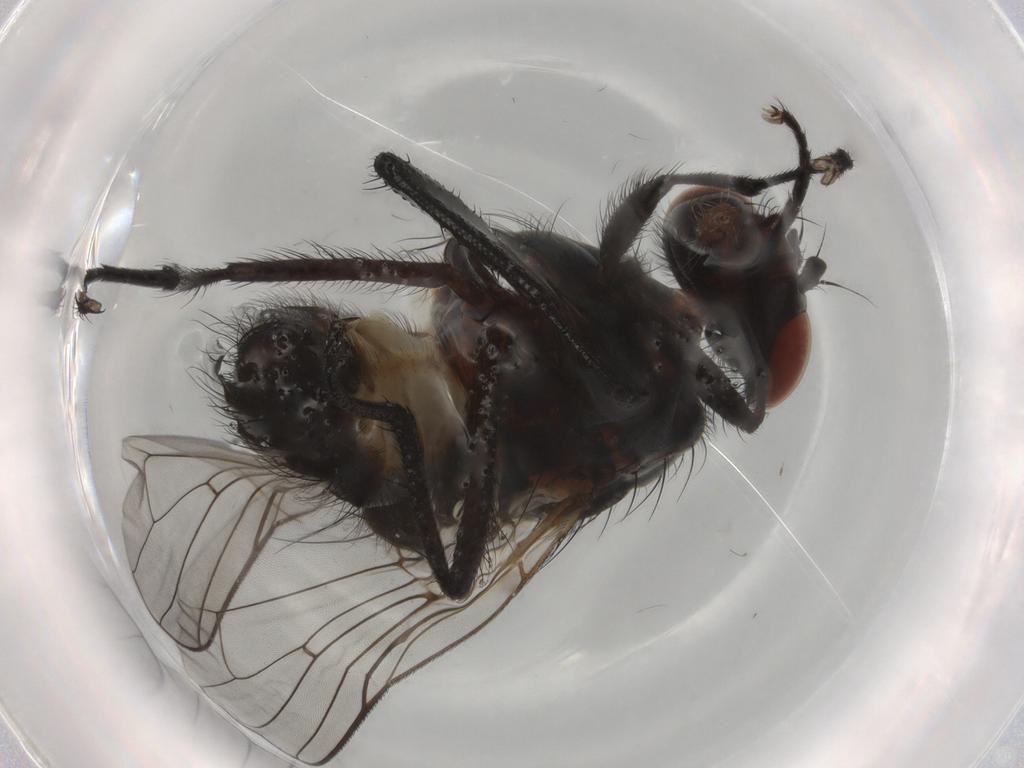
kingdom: Animalia
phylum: Arthropoda
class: Insecta
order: Diptera
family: Anthomyiidae
